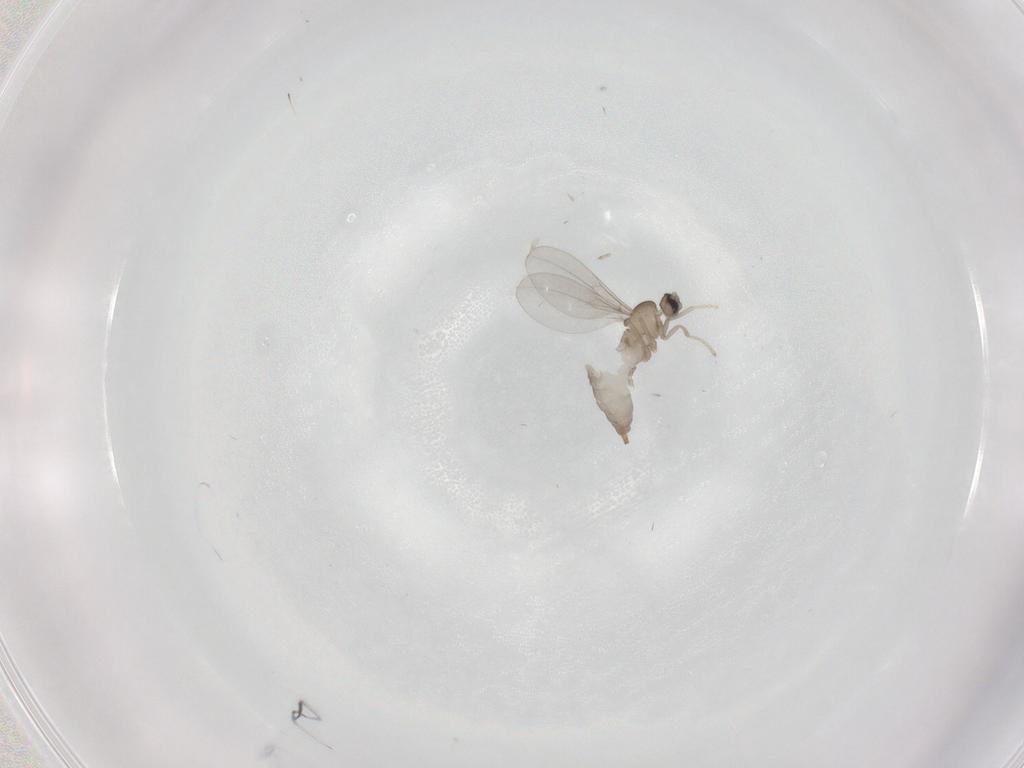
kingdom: Animalia
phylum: Arthropoda
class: Insecta
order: Diptera
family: Cecidomyiidae
